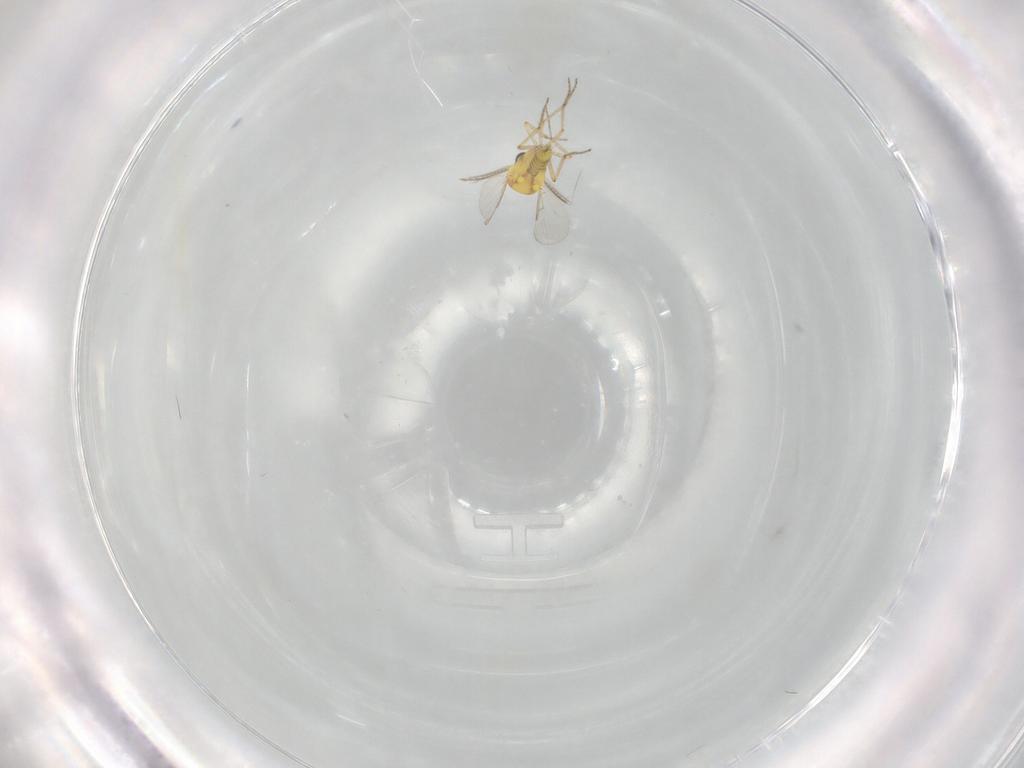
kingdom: Animalia
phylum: Arthropoda
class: Insecta
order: Diptera
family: Ceratopogonidae
